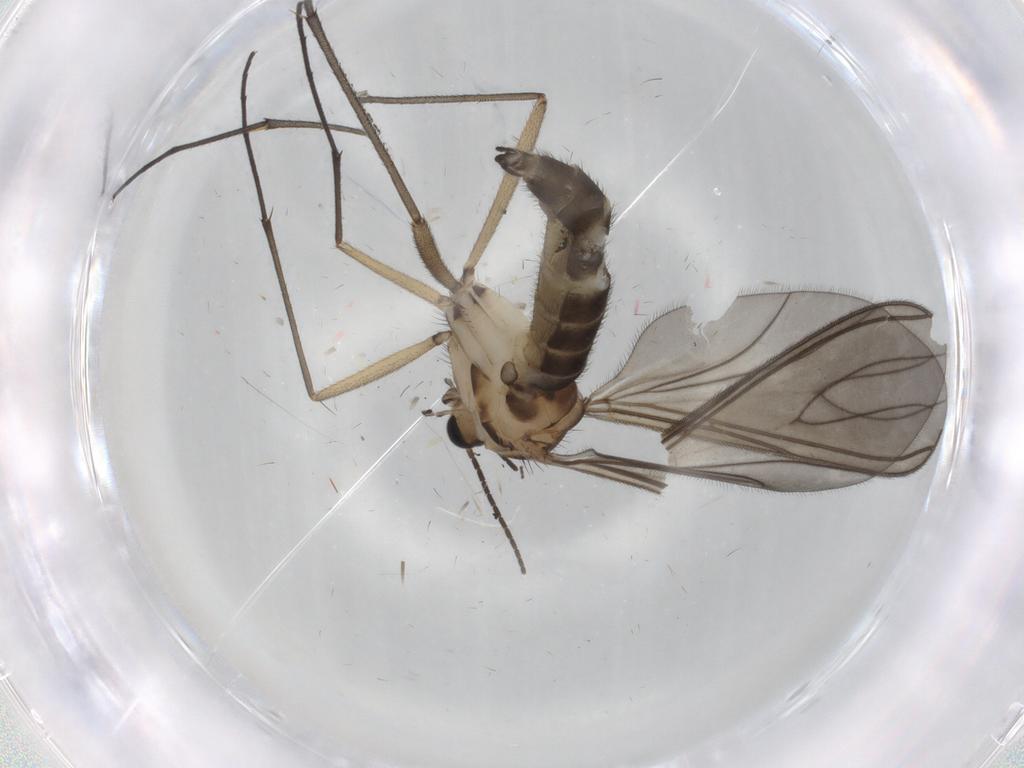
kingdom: Animalia
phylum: Arthropoda
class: Insecta
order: Diptera
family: Sciaridae
